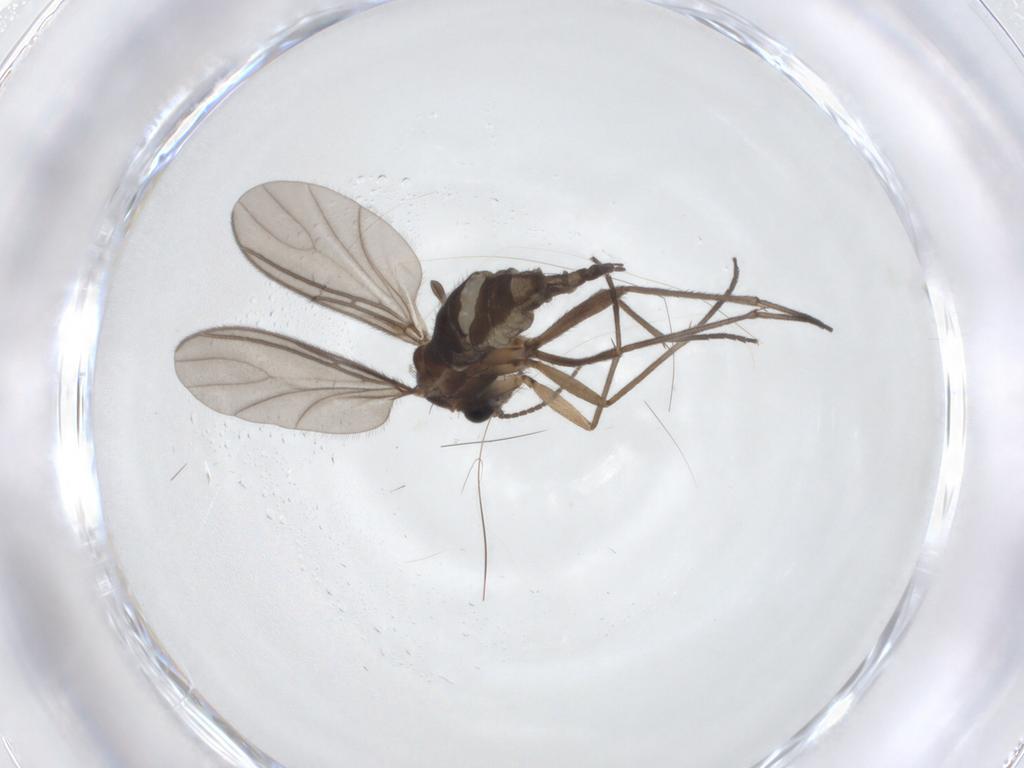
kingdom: Animalia
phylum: Arthropoda
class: Insecta
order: Diptera
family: Sciaridae
